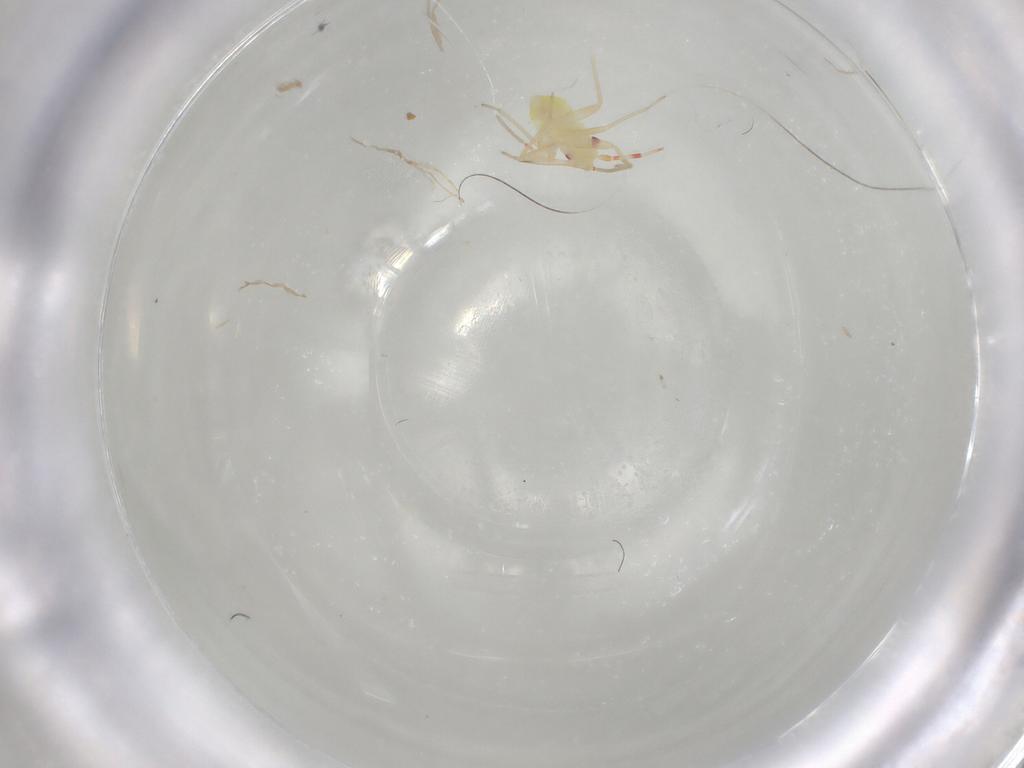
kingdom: Animalia
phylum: Arthropoda
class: Insecta
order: Hemiptera
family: Miridae
